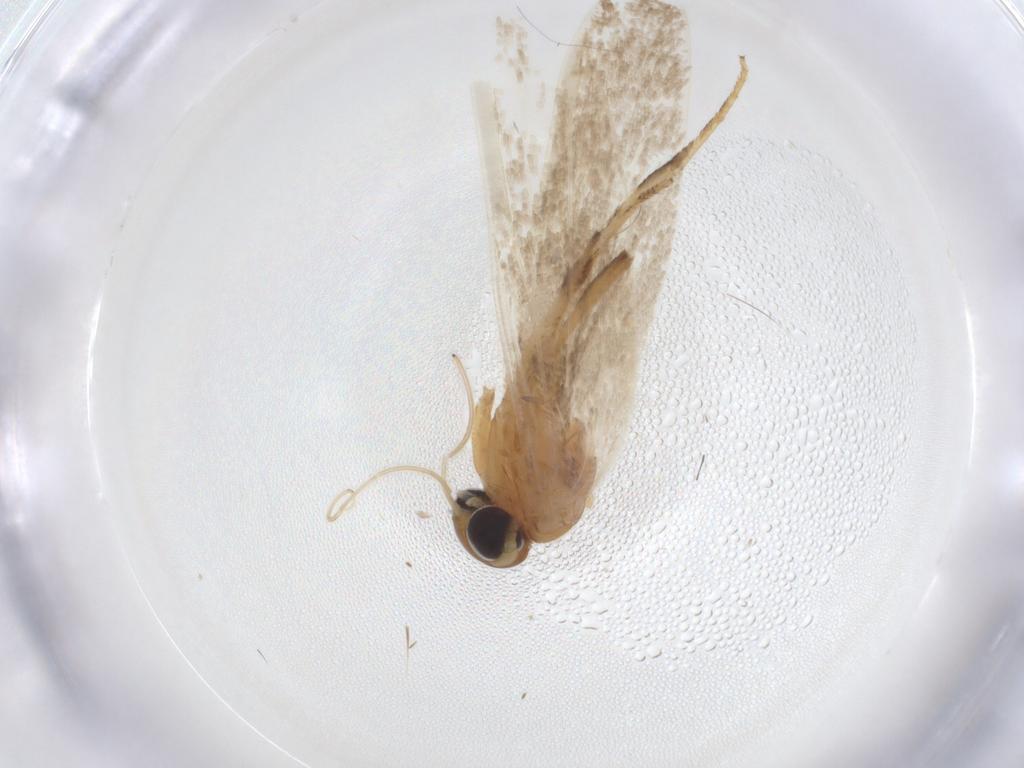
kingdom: Animalia
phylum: Arthropoda
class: Insecta
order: Lepidoptera
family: Blastobasidae
